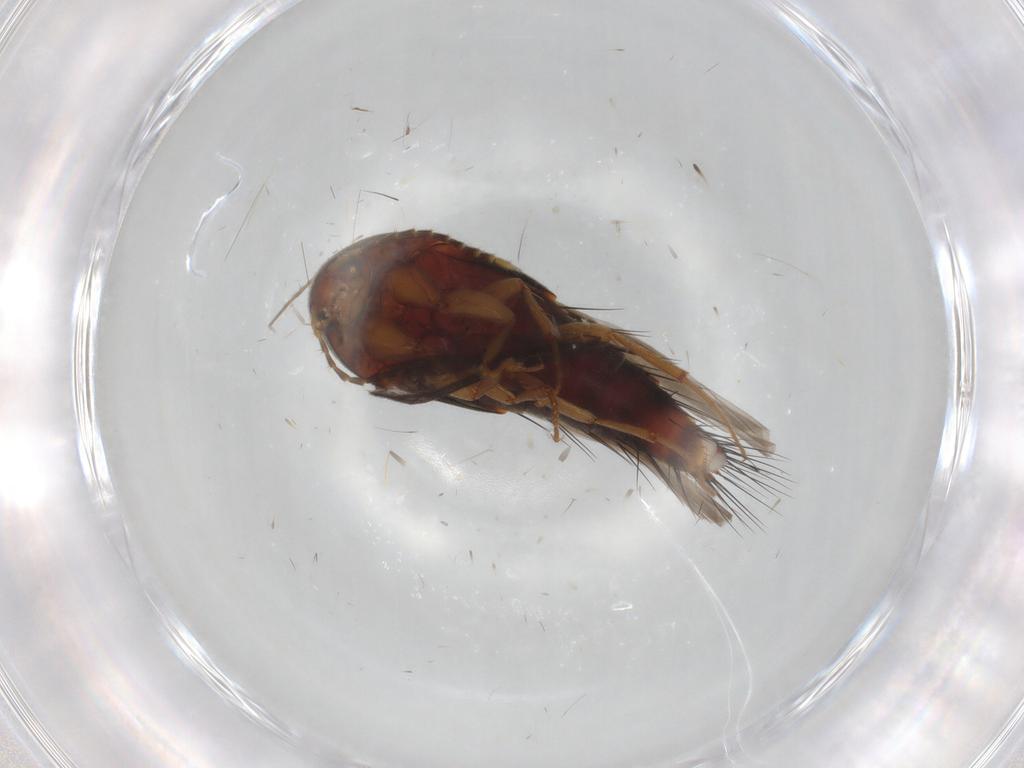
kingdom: Animalia
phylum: Arthropoda
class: Insecta
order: Coleoptera
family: Staphylinidae
